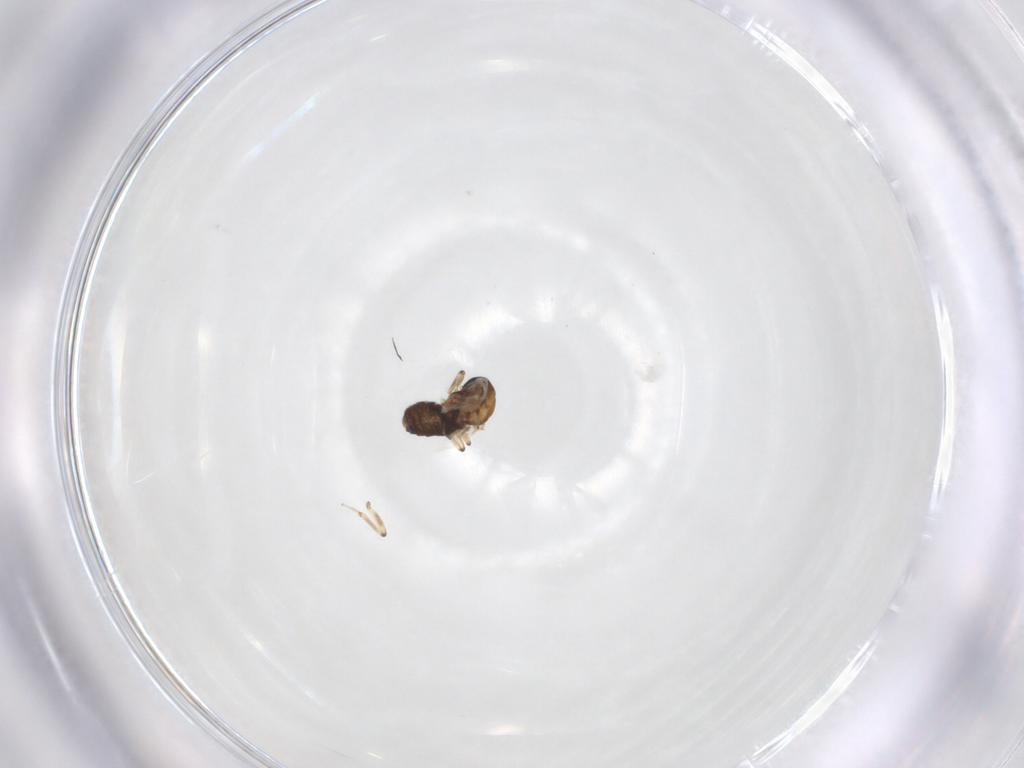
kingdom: Animalia
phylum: Arthropoda
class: Insecta
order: Diptera
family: Ceratopogonidae
